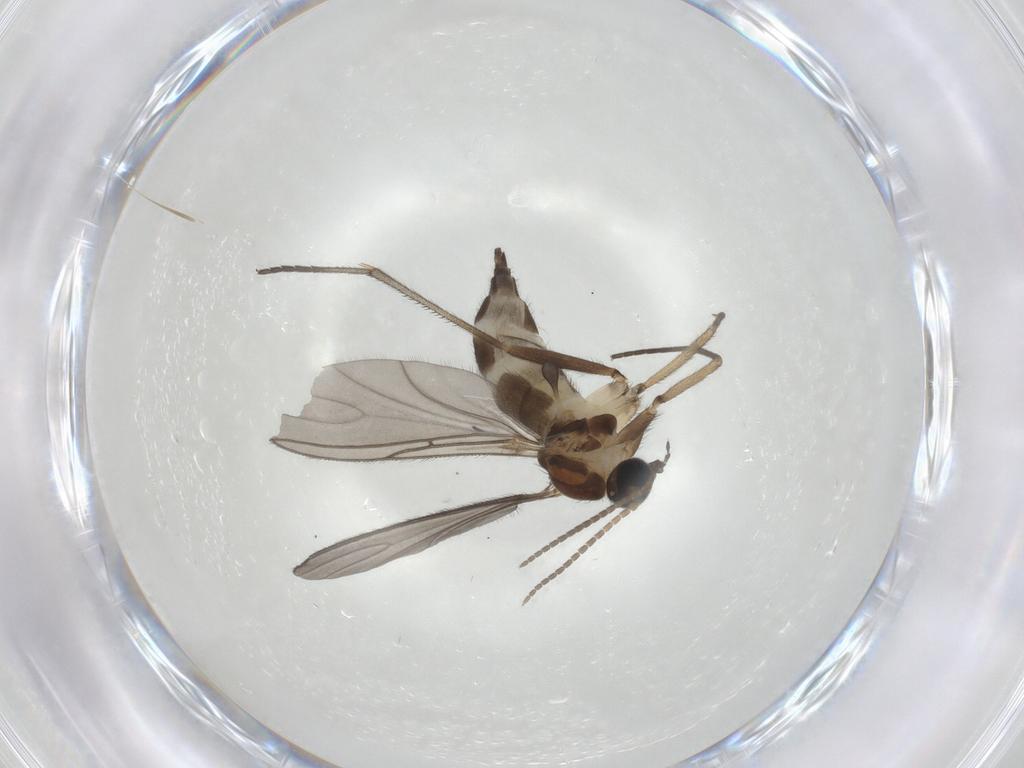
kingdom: Animalia
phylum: Arthropoda
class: Insecta
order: Diptera
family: Sciaridae
